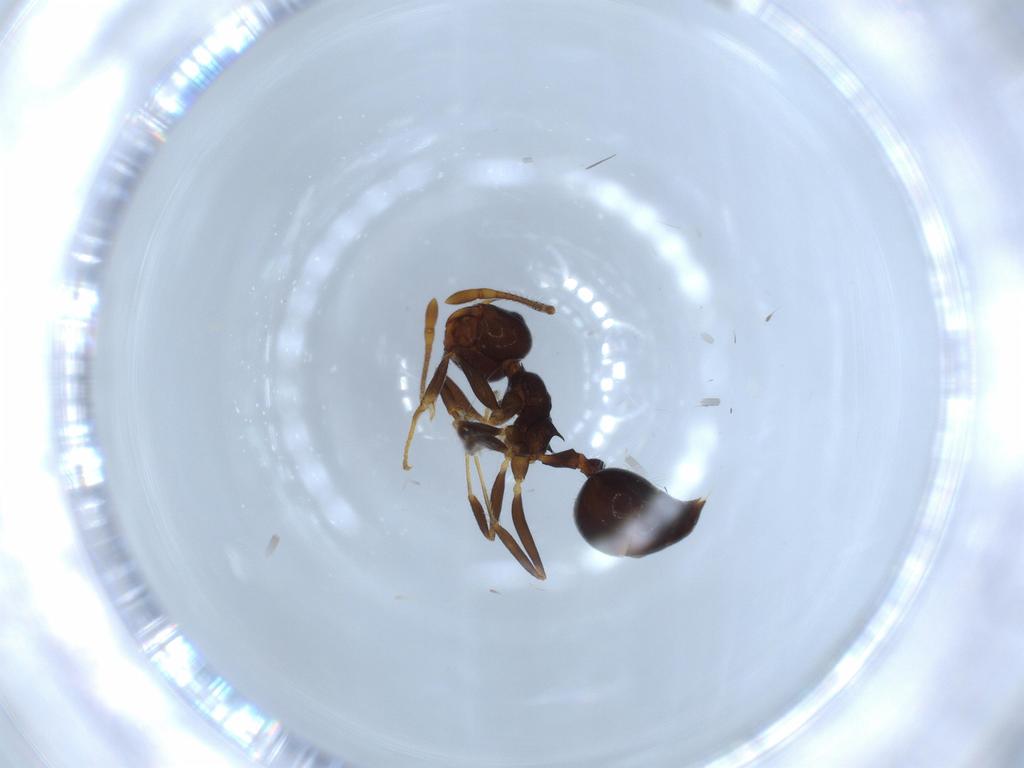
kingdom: Animalia
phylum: Arthropoda
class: Insecta
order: Hymenoptera
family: Formicidae
